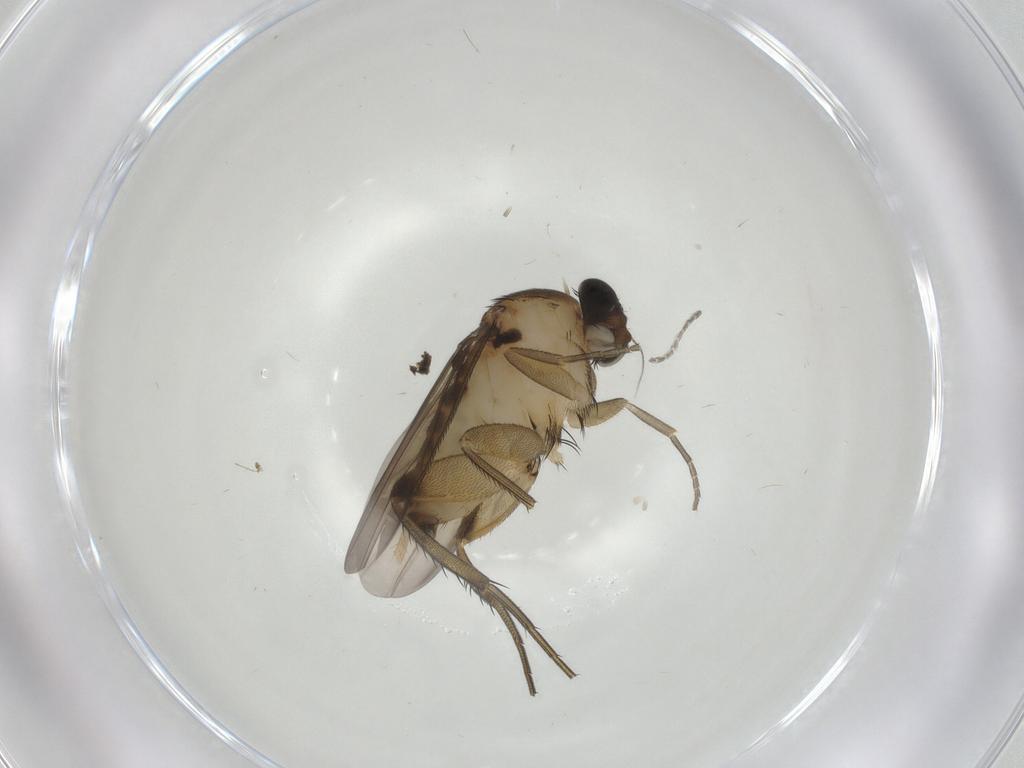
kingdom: Animalia
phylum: Arthropoda
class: Insecta
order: Diptera
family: Phoridae
